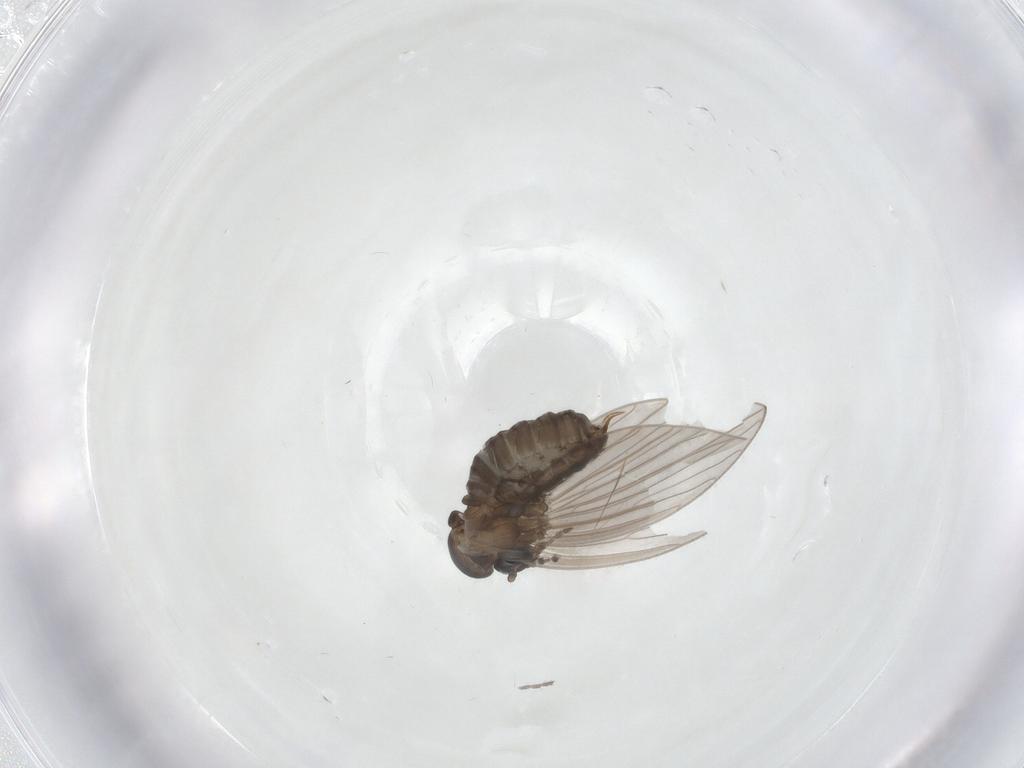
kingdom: Animalia
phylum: Arthropoda
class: Insecta
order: Diptera
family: Psychodidae
